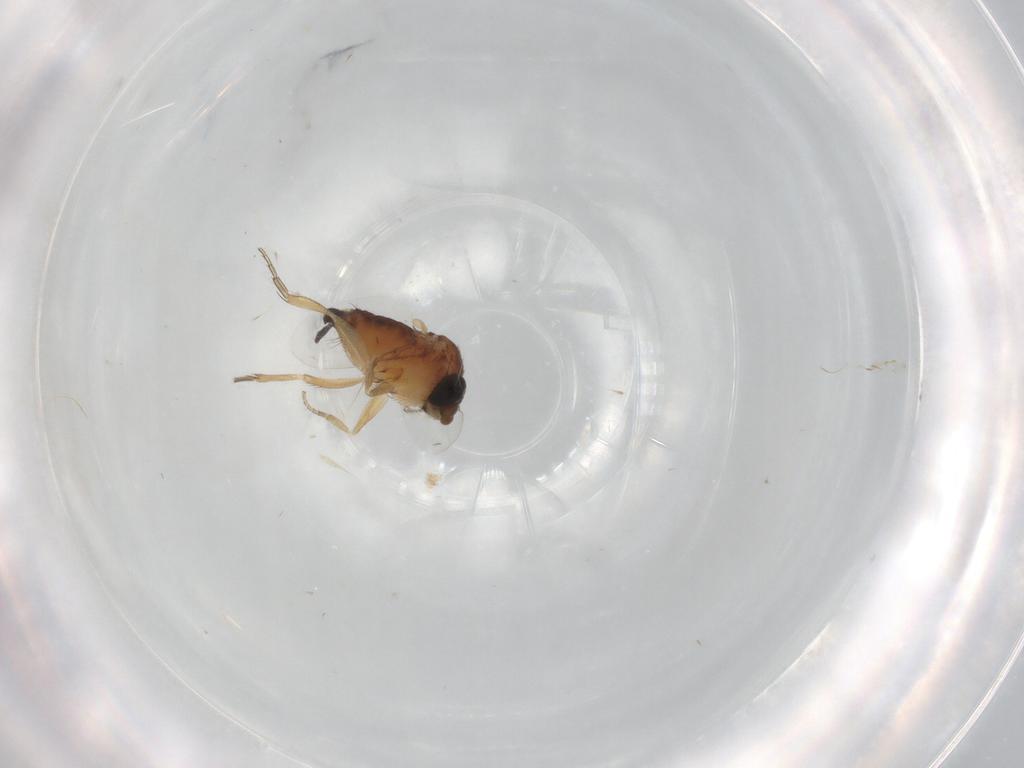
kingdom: Animalia
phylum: Arthropoda
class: Insecta
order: Diptera
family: Phoridae
